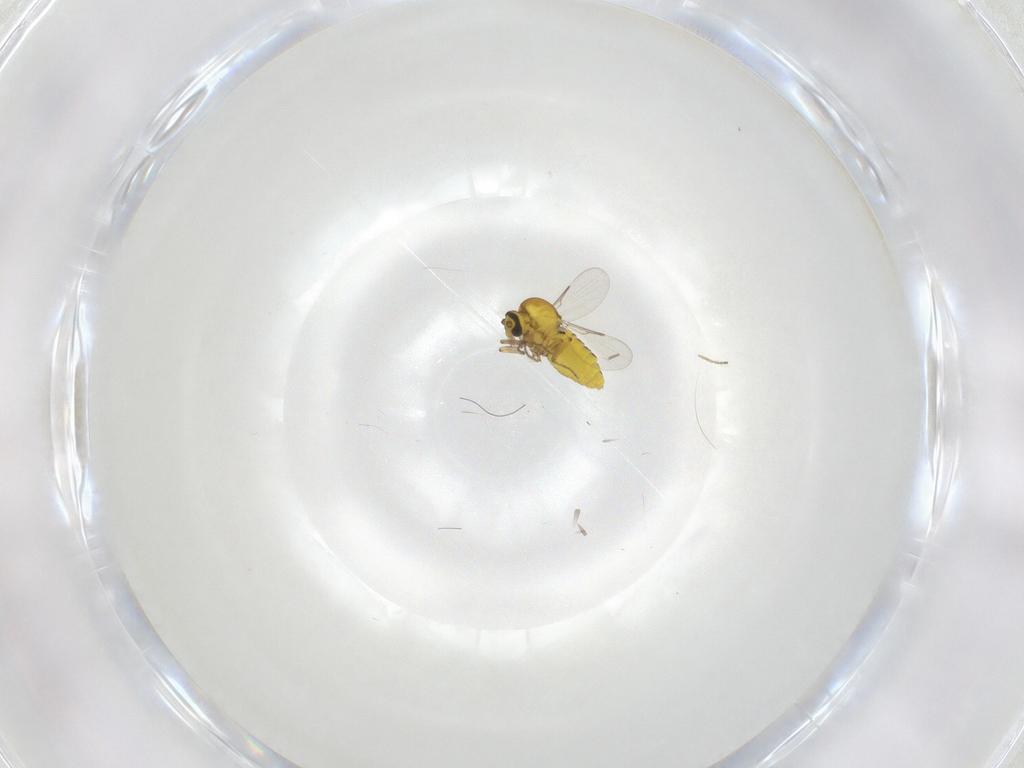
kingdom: Animalia
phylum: Arthropoda
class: Insecta
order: Diptera
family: Ceratopogonidae
